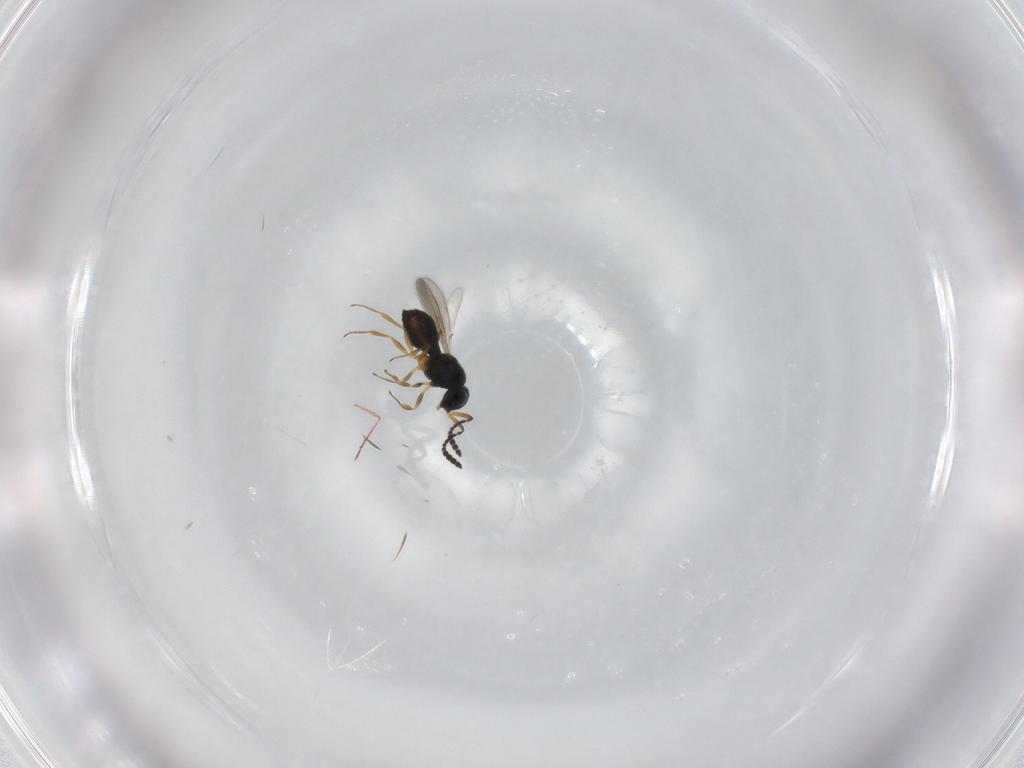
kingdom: Animalia
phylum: Arthropoda
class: Insecta
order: Hymenoptera
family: Scelionidae
